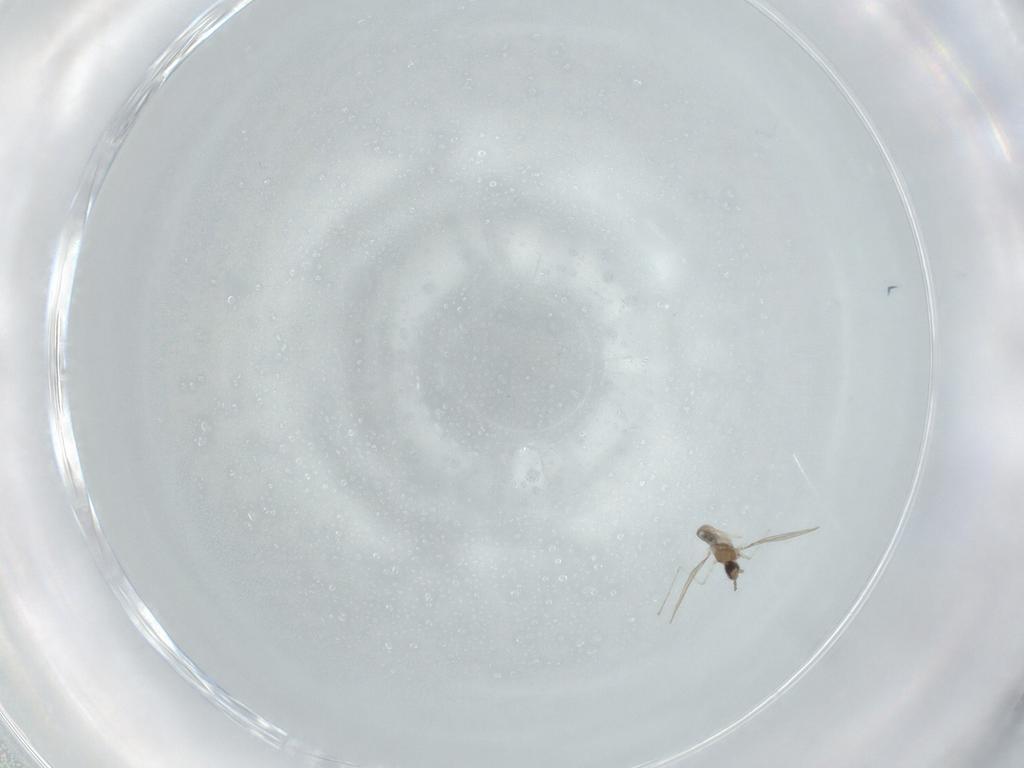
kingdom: Animalia
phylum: Arthropoda
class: Insecta
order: Diptera
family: Cecidomyiidae
